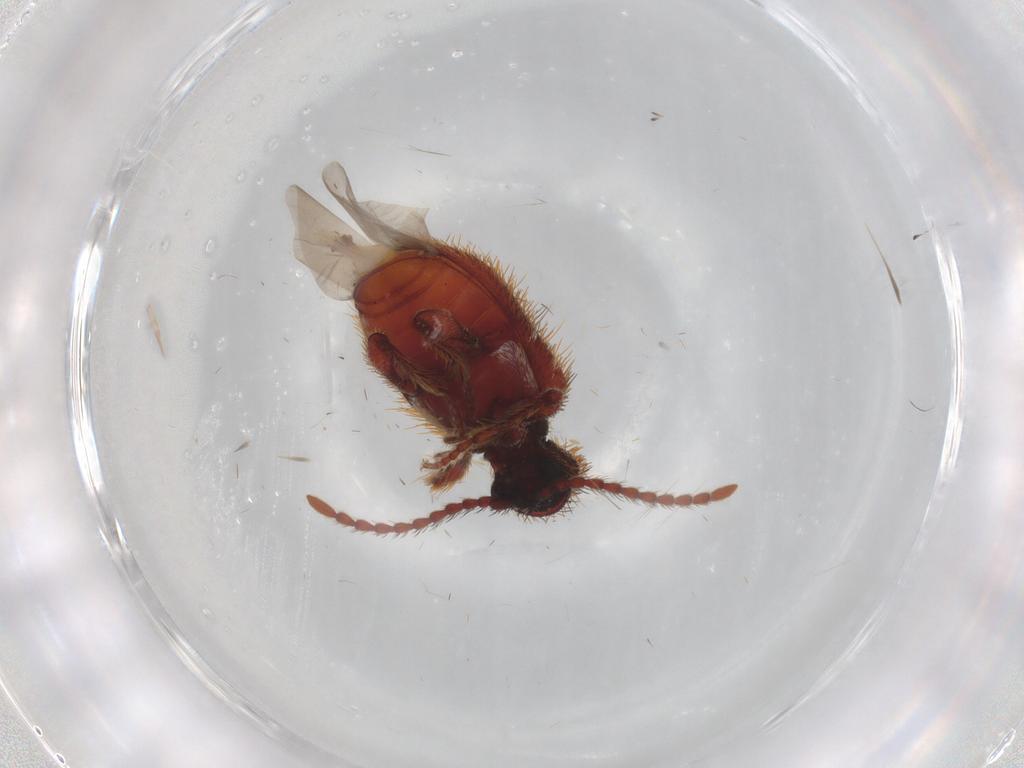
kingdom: Animalia
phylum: Arthropoda
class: Insecta
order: Coleoptera
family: Ptinidae
